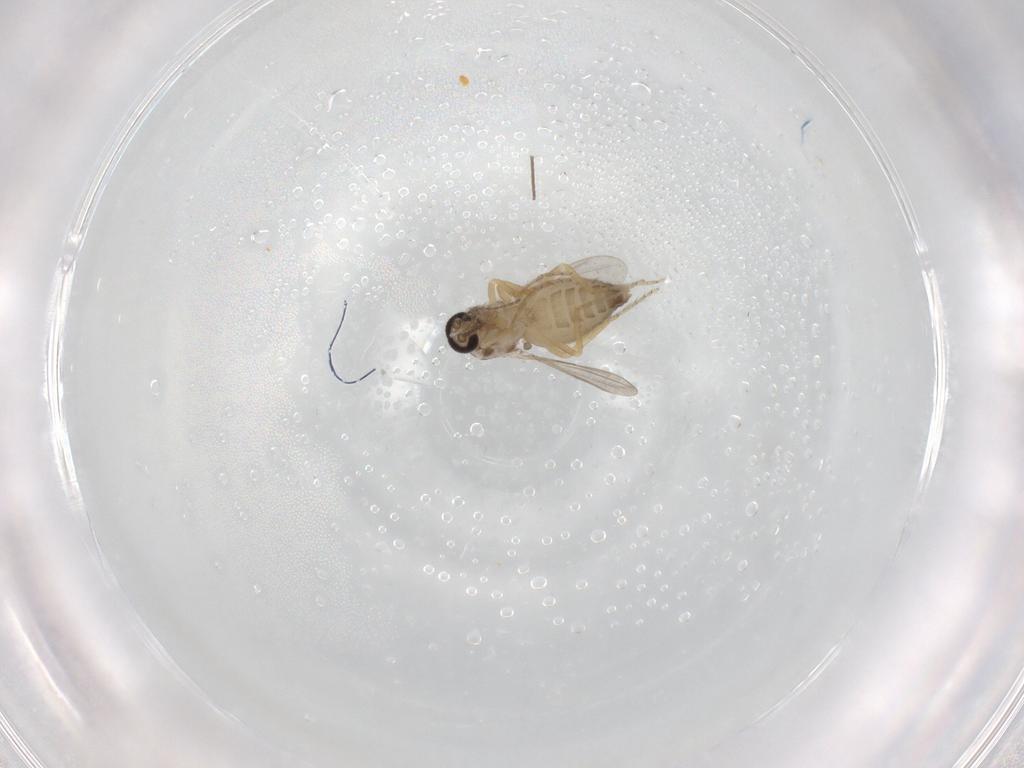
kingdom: Animalia
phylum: Arthropoda
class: Insecta
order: Diptera
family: Ceratopogonidae
